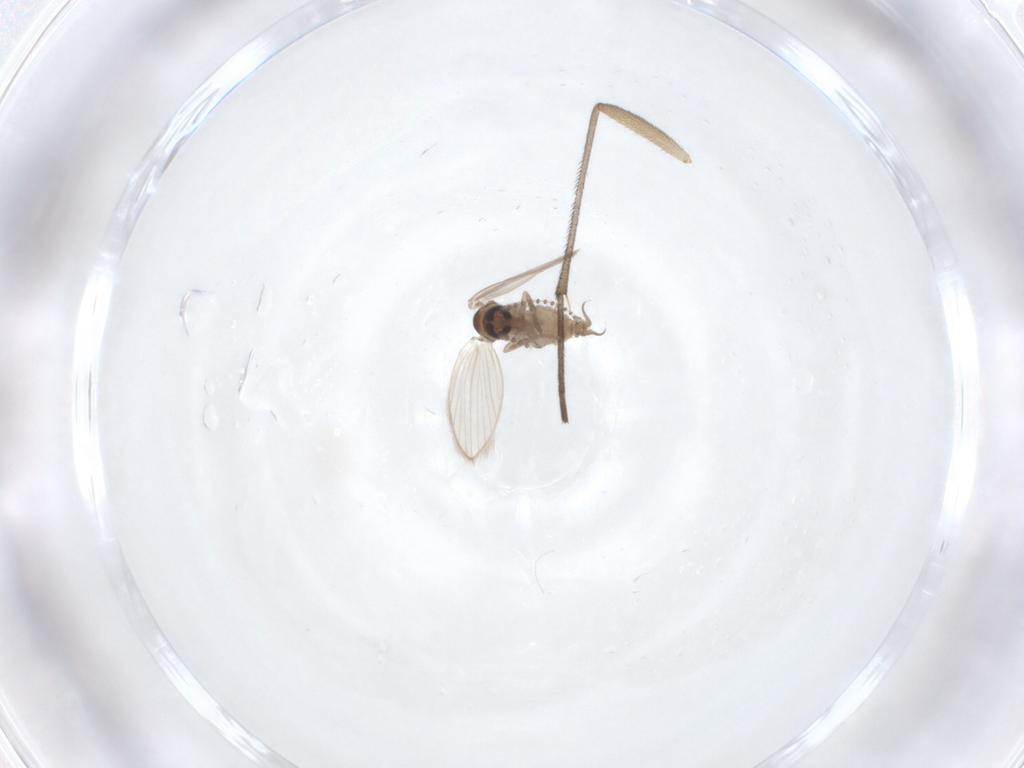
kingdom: Animalia
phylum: Arthropoda
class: Insecta
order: Diptera
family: Psychodidae
